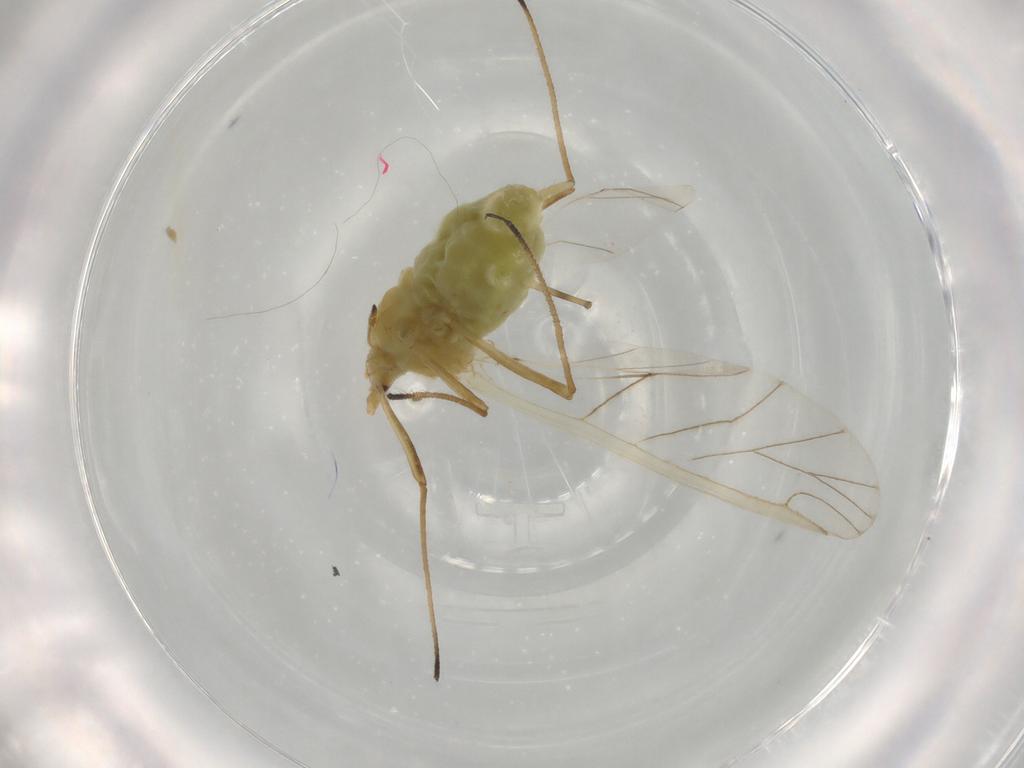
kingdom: Animalia
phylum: Arthropoda
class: Insecta
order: Hemiptera
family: Aphididae
